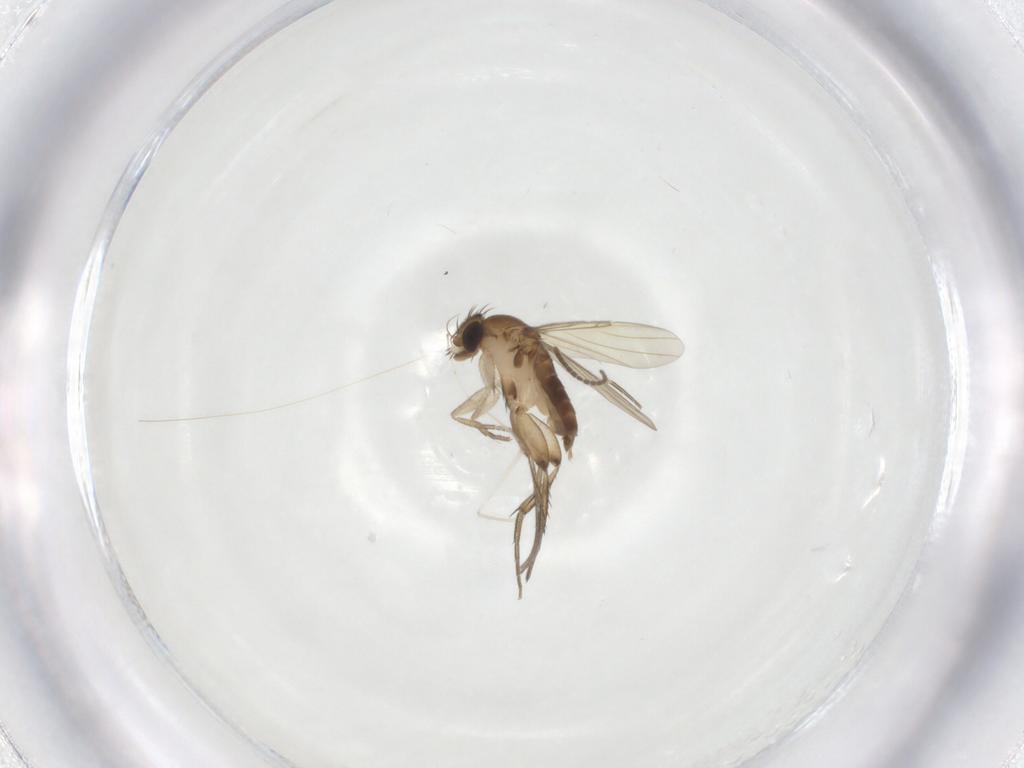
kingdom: Animalia
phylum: Arthropoda
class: Insecta
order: Diptera
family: Phoridae
